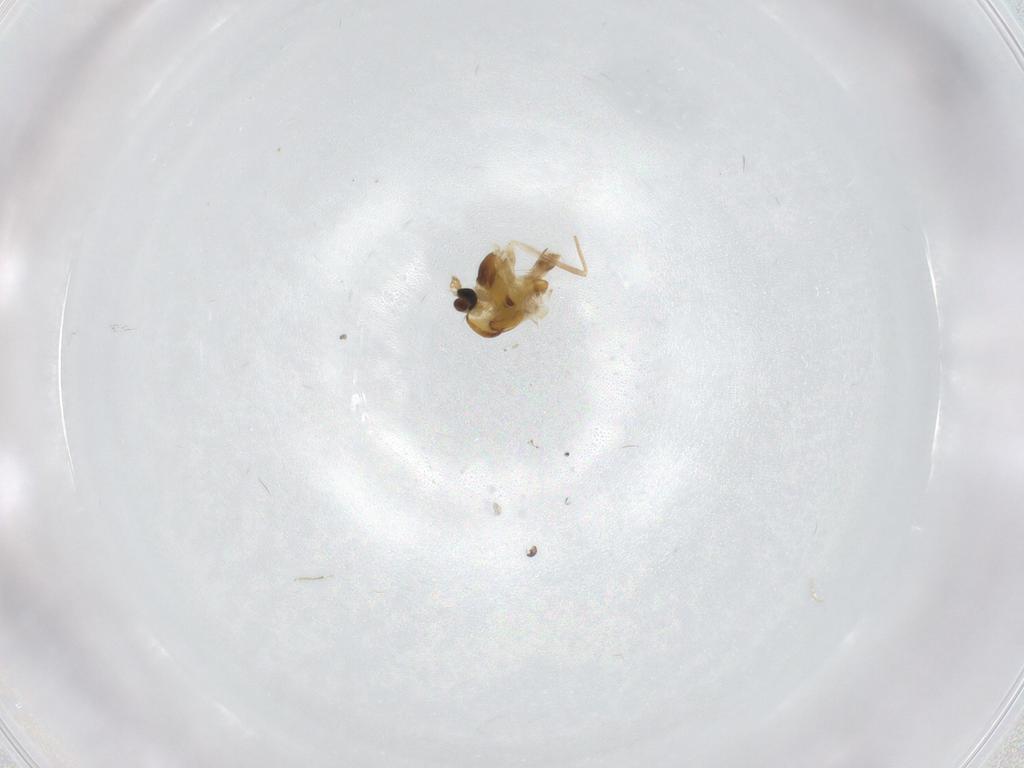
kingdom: Animalia
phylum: Arthropoda
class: Insecta
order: Diptera
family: Chironomidae
